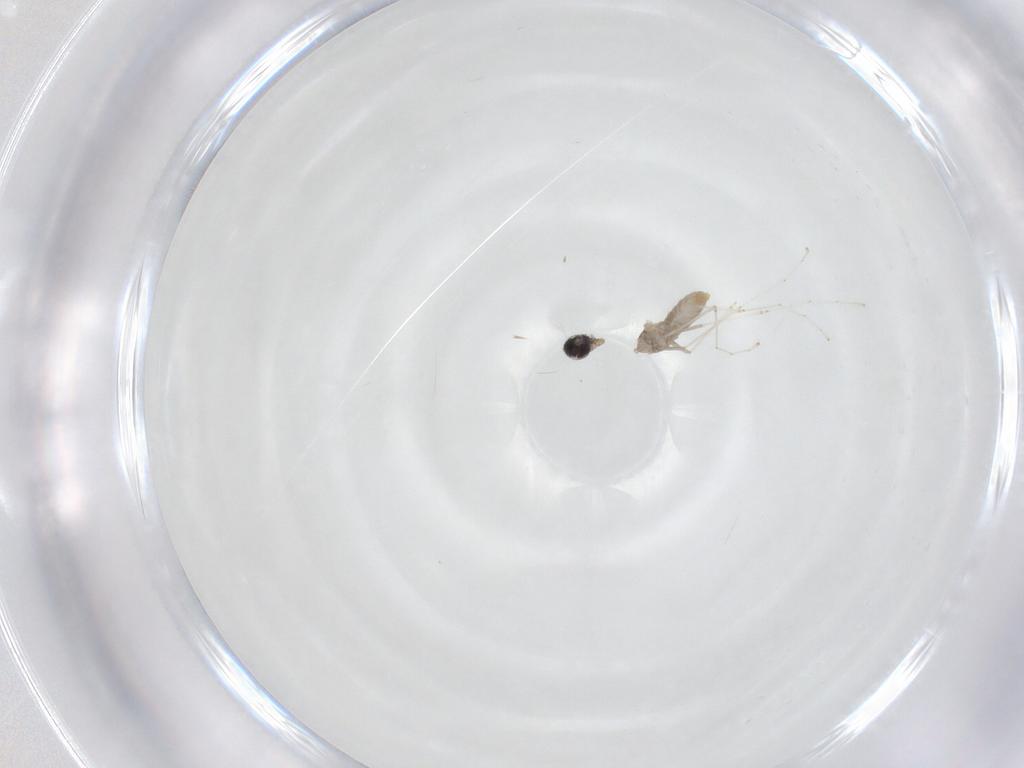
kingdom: Animalia
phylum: Arthropoda
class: Insecta
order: Diptera
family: Cecidomyiidae
